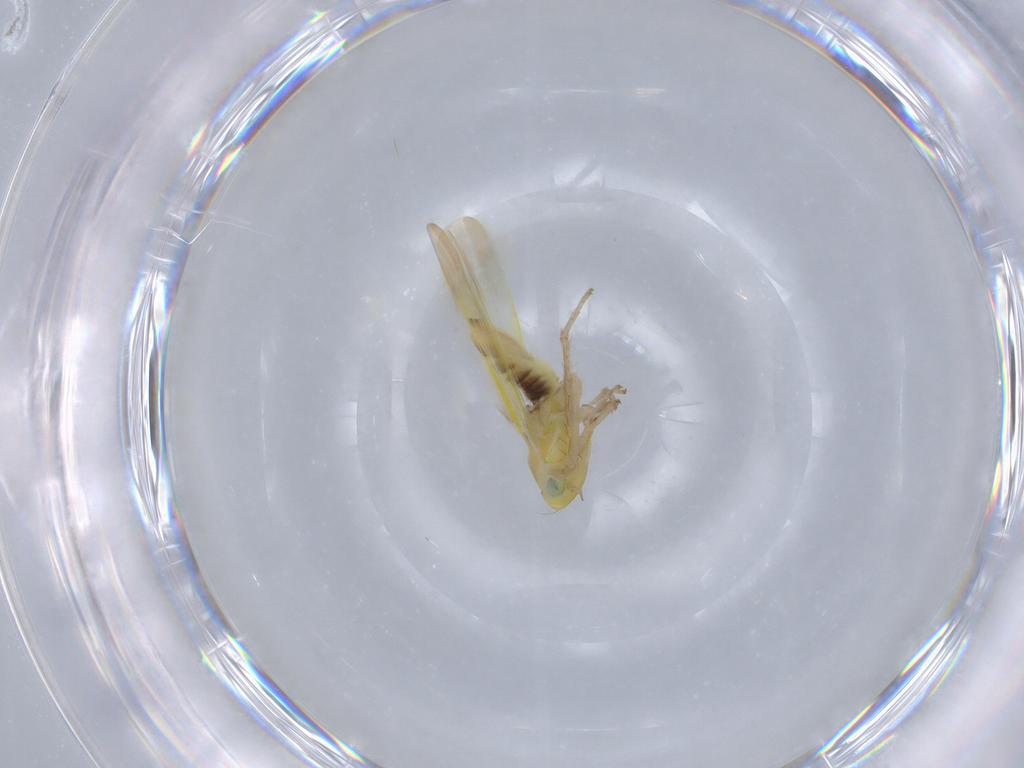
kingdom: Animalia
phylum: Arthropoda
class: Insecta
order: Hemiptera
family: Cicadellidae
